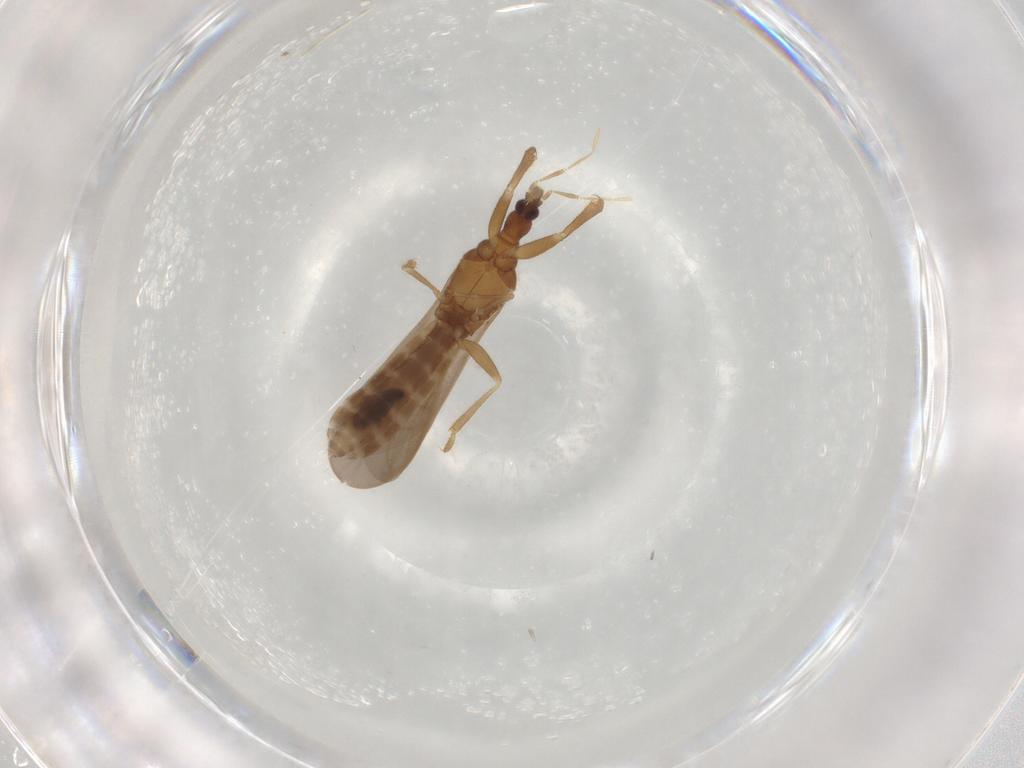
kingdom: Animalia
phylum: Arthropoda
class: Insecta
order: Hemiptera
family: Enicocephalidae
